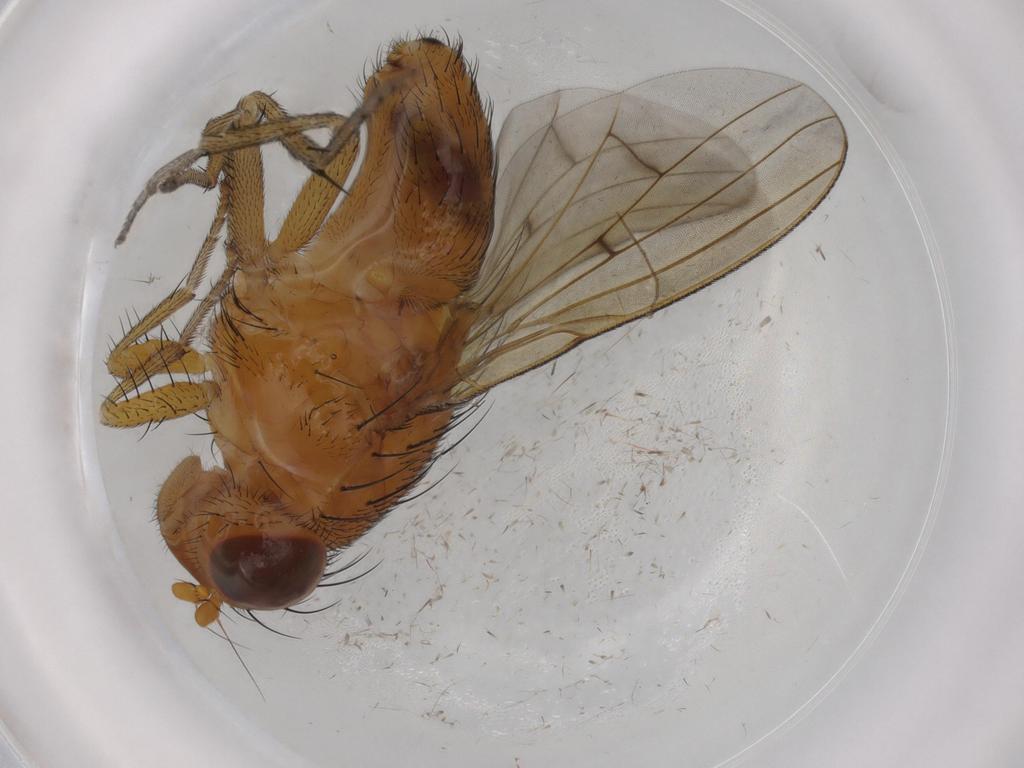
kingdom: Animalia
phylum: Arthropoda
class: Insecta
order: Diptera
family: Chironomidae
